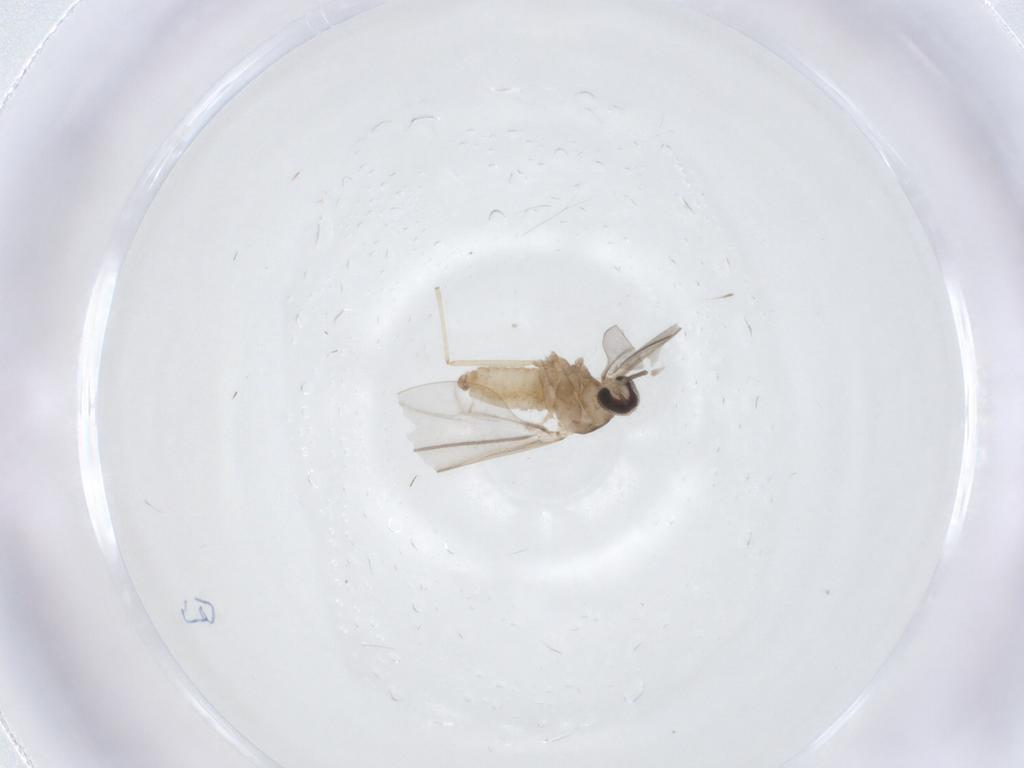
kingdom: Animalia
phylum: Arthropoda
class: Insecta
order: Diptera
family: Cecidomyiidae
